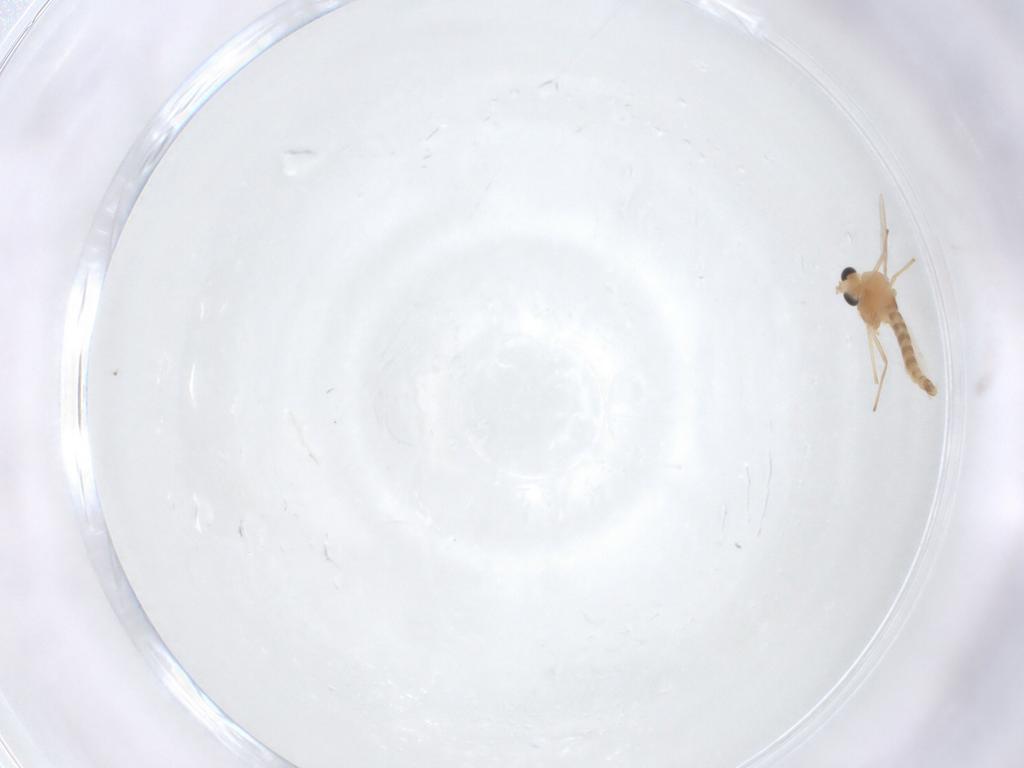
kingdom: Animalia
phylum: Arthropoda
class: Insecta
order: Diptera
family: Chironomidae
